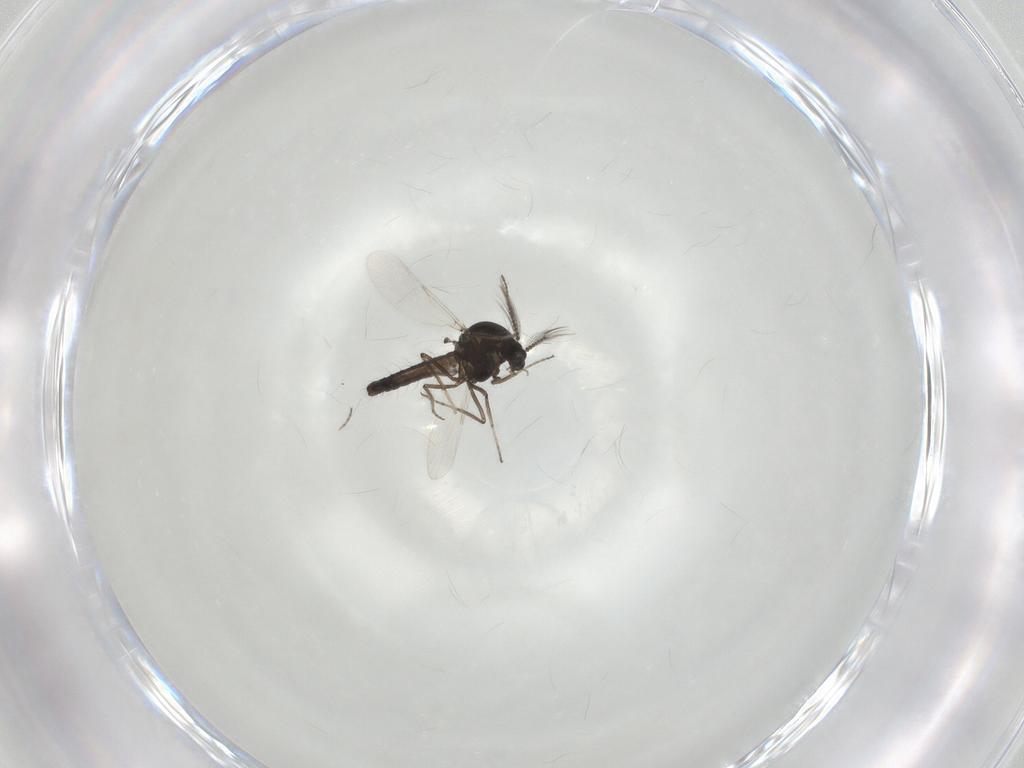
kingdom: Animalia
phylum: Arthropoda
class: Insecta
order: Diptera
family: Ceratopogonidae
